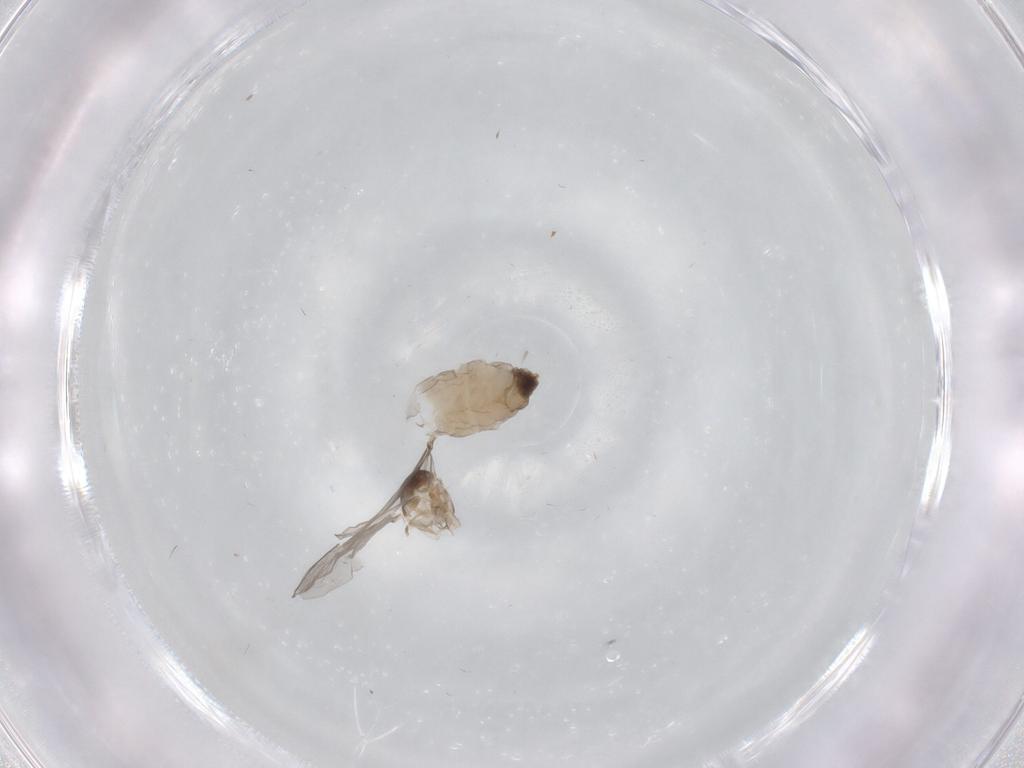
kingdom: Animalia
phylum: Arthropoda
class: Insecta
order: Diptera
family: Cecidomyiidae
